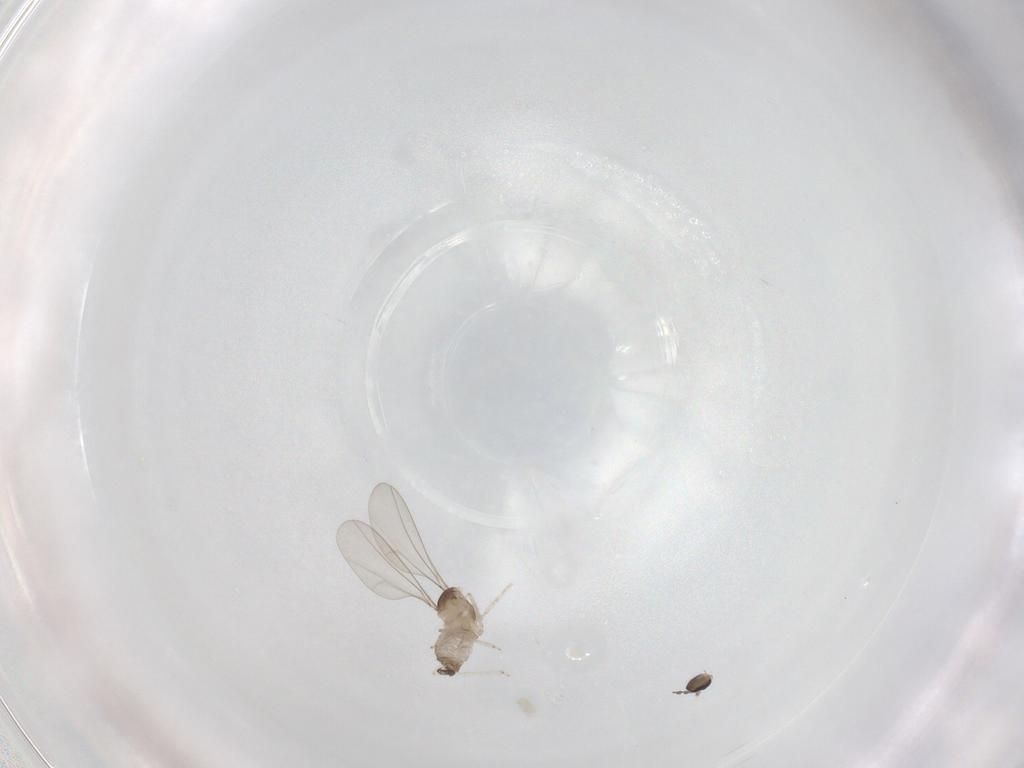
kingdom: Animalia
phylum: Arthropoda
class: Insecta
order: Diptera
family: Cecidomyiidae
